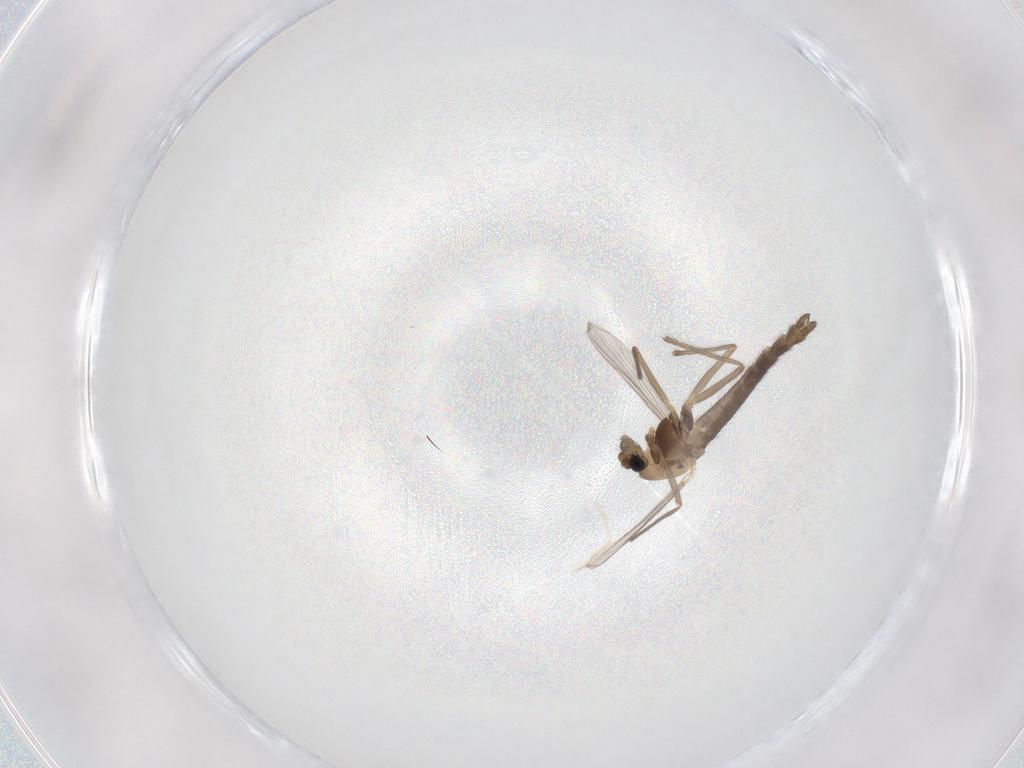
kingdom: Animalia
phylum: Arthropoda
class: Insecta
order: Diptera
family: Chironomidae
